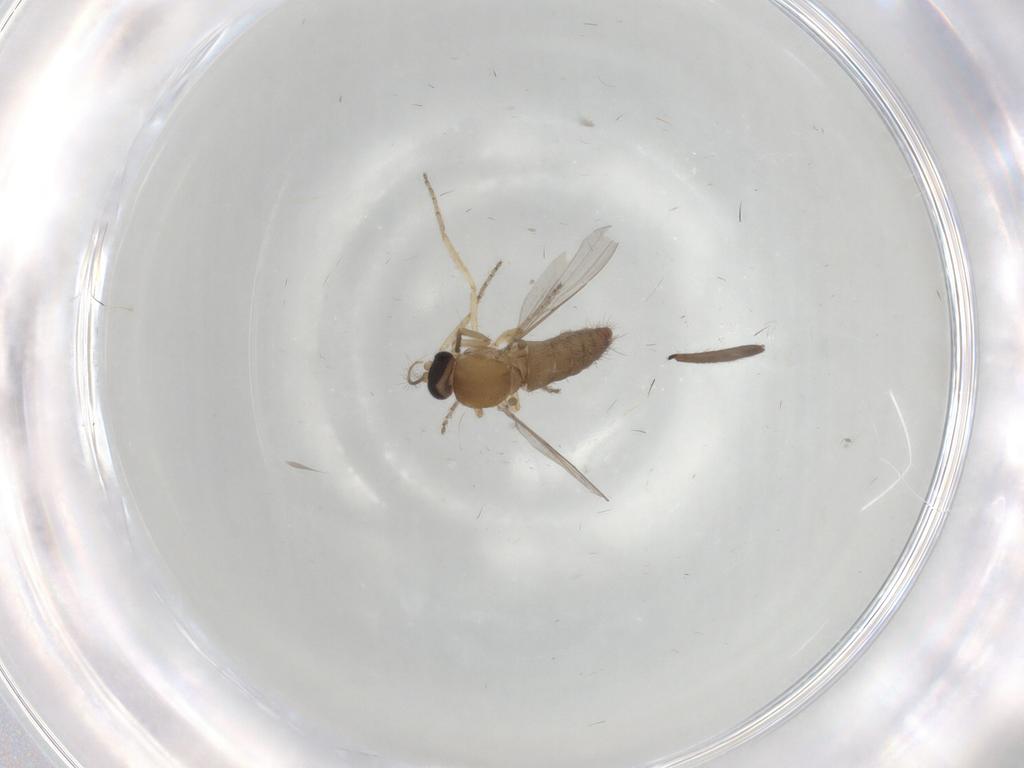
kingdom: Animalia
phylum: Arthropoda
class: Insecta
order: Diptera
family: Ceratopogonidae
